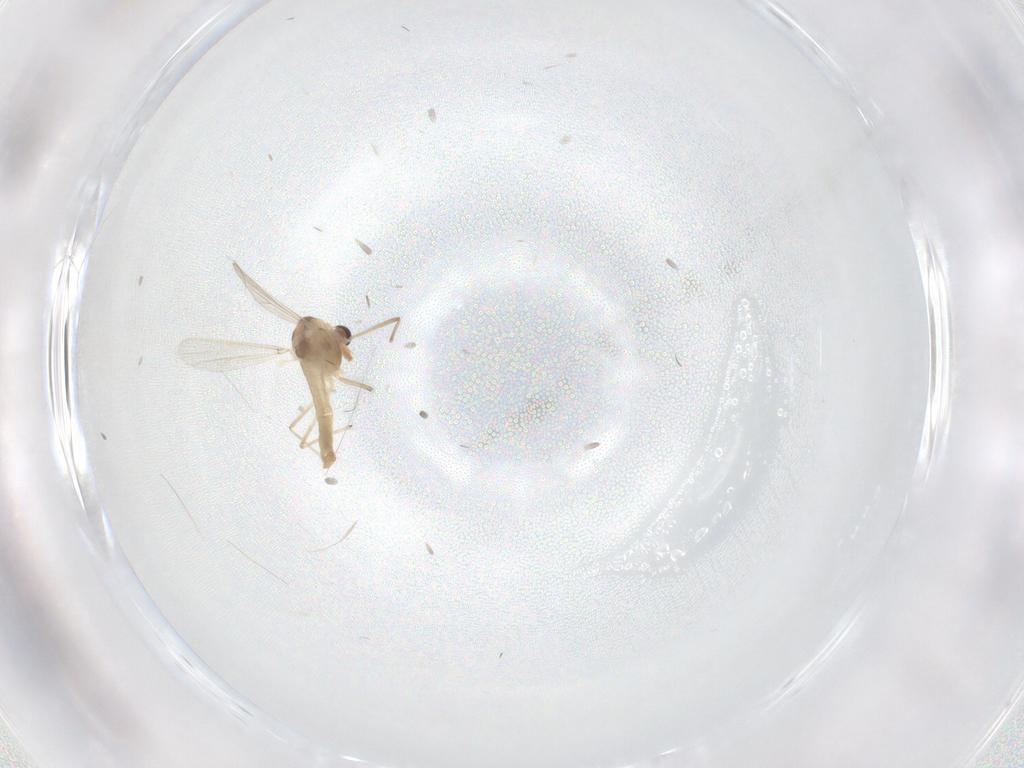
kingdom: Animalia
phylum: Arthropoda
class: Insecta
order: Diptera
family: Chironomidae
